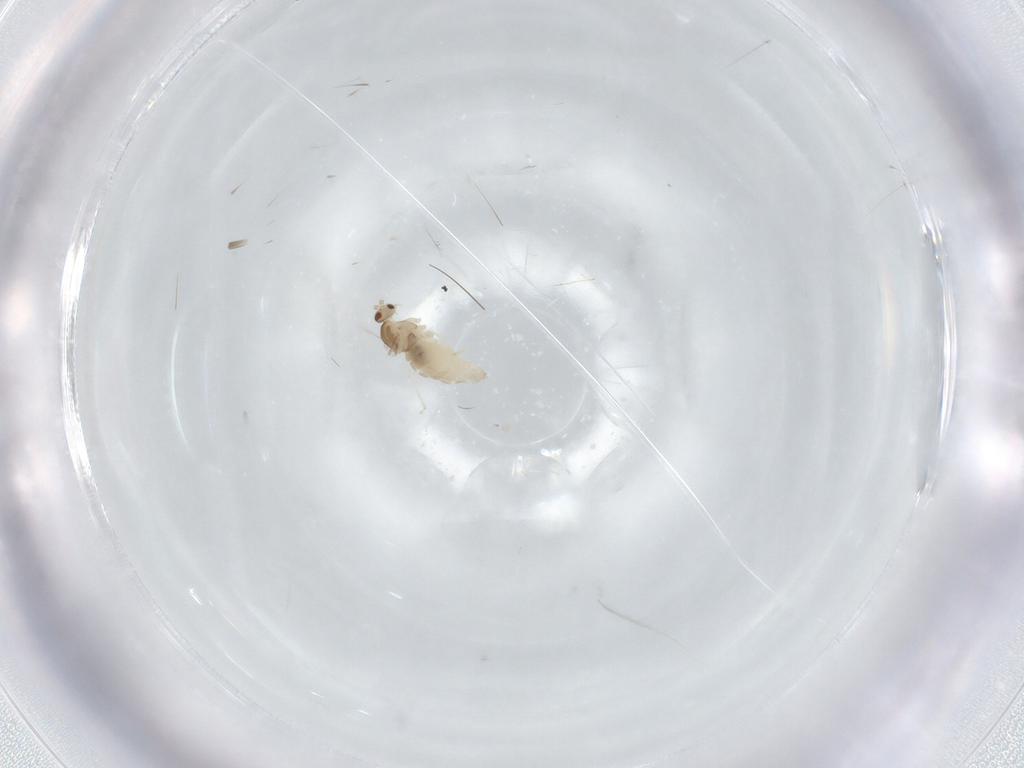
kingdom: Animalia
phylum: Arthropoda
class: Insecta
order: Diptera
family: Cecidomyiidae
